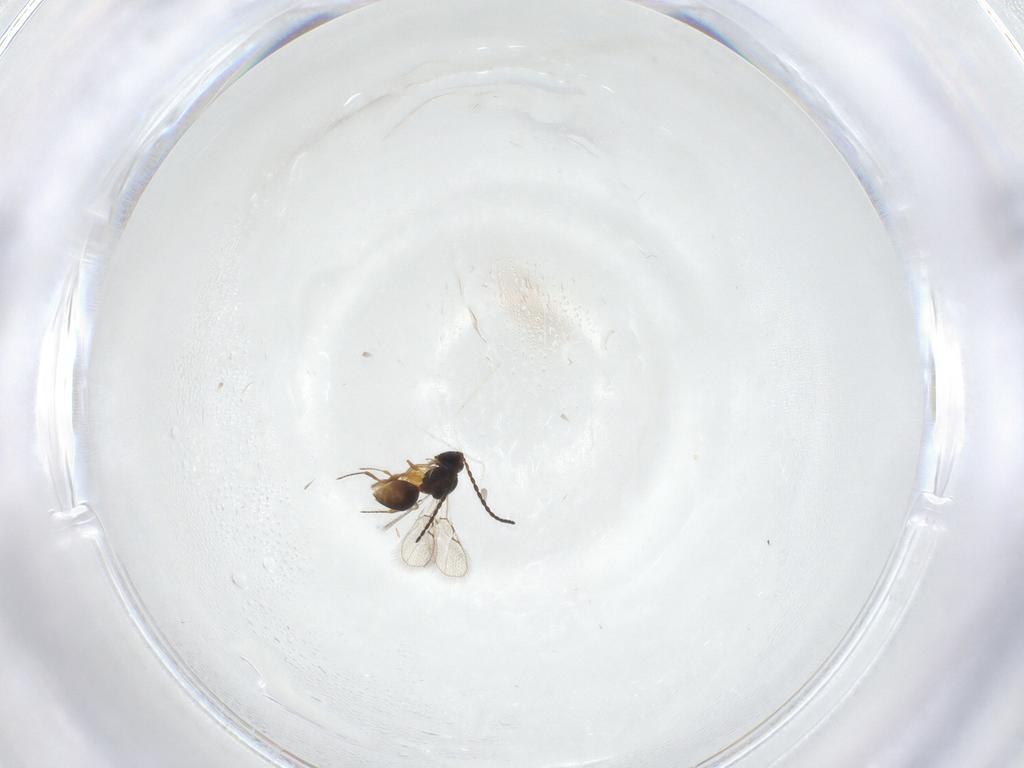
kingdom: Animalia
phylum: Arthropoda
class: Insecta
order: Hymenoptera
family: Figitidae
